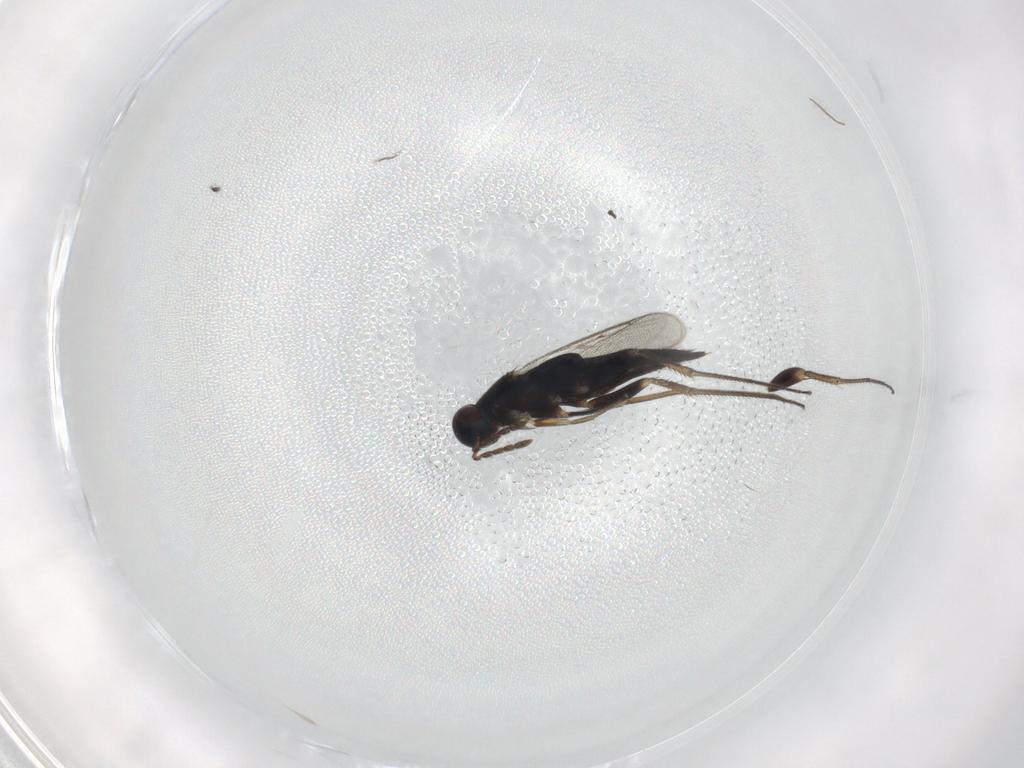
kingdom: Animalia
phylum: Arthropoda
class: Insecta
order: Hymenoptera
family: Eulophidae
